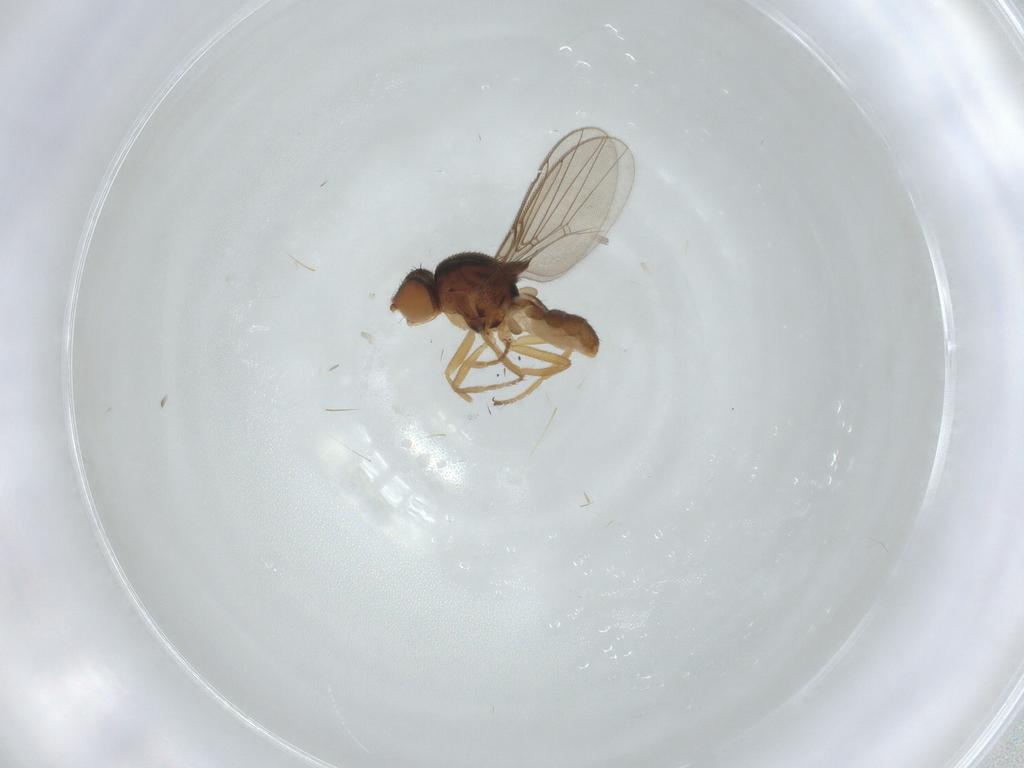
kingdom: Animalia
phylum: Arthropoda
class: Insecta
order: Diptera
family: Chloropidae
